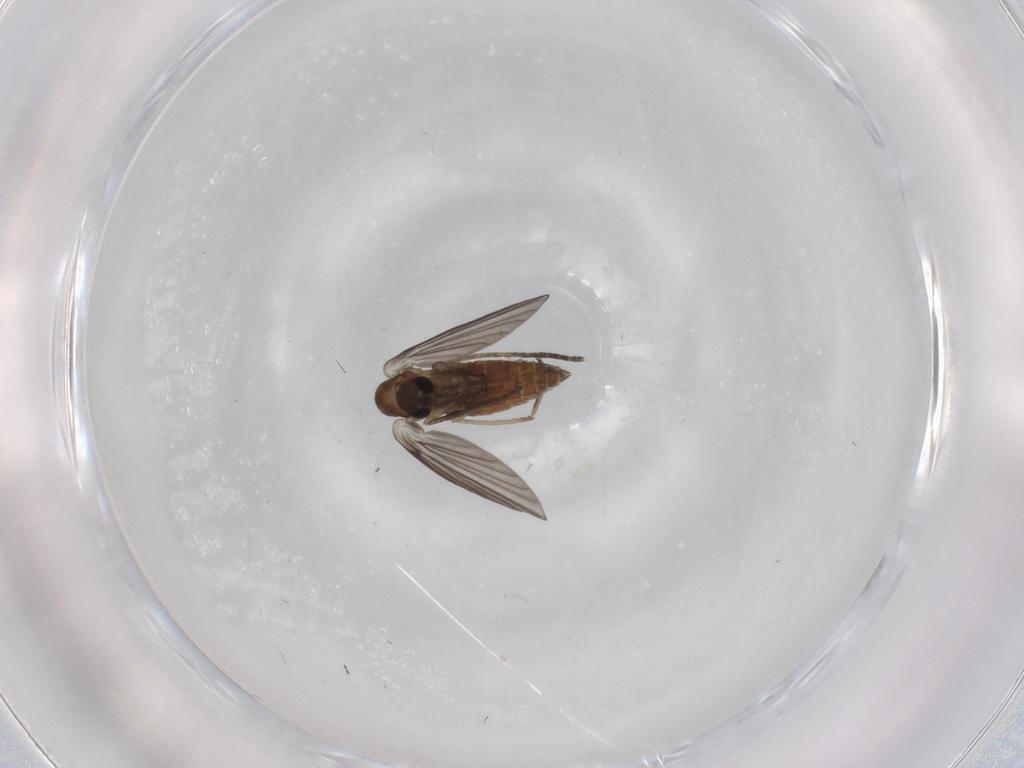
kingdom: Animalia
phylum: Arthropoda
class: Insecta
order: Diptera
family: Psychodidae
